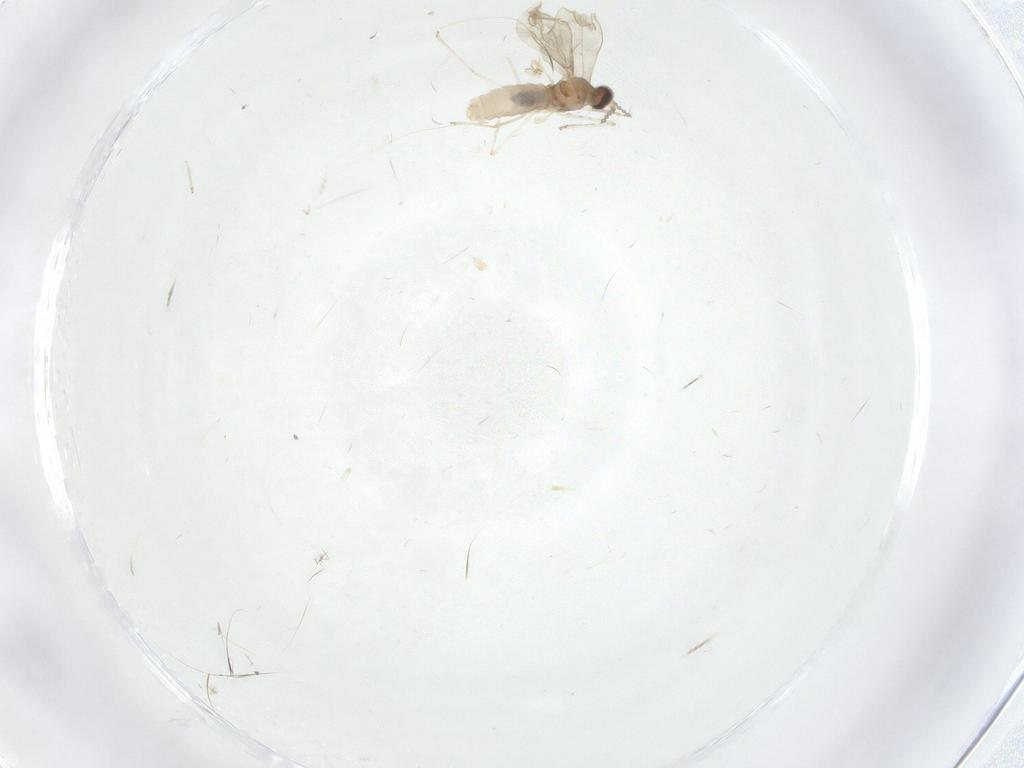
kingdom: Animalia
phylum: Arthropoda
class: Insecta
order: Diptera
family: Cecidomyiidae
